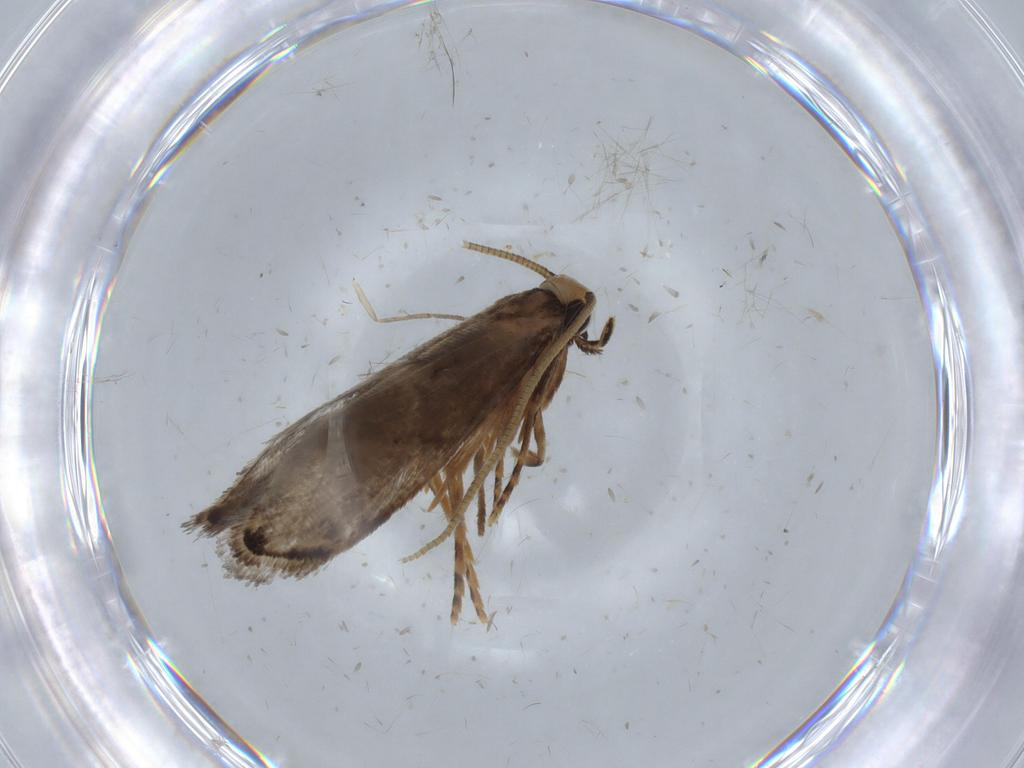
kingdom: Animalia
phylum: Arthropoda
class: Insecta
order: Lepidoptera
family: Tineidae
